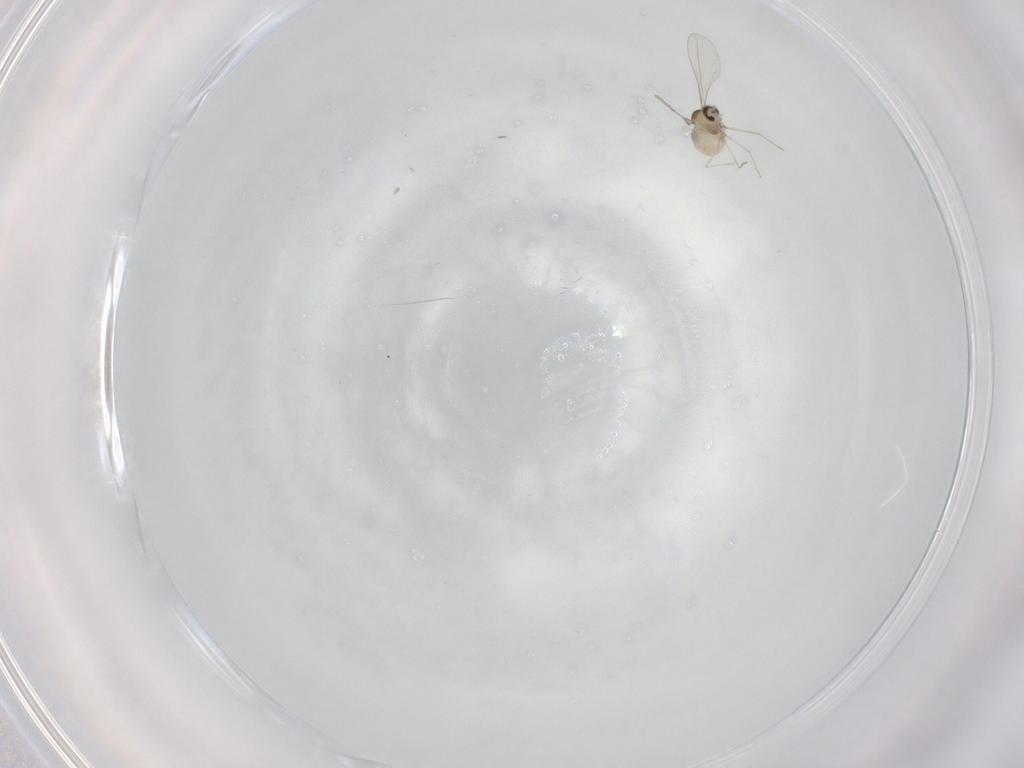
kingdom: Animalia
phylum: Arthropoda
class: Insecta
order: Diptera
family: Cecidomyiidae
